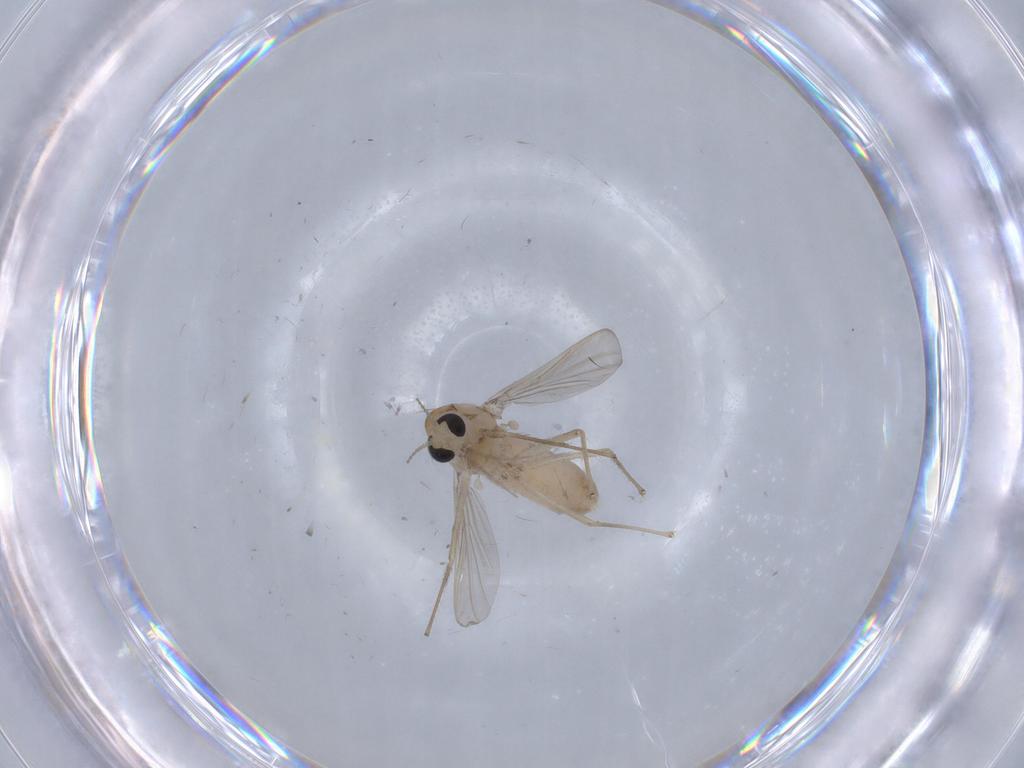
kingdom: Animalia
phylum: Arthropoda
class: Insecta
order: Diptera
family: Chironomidae
